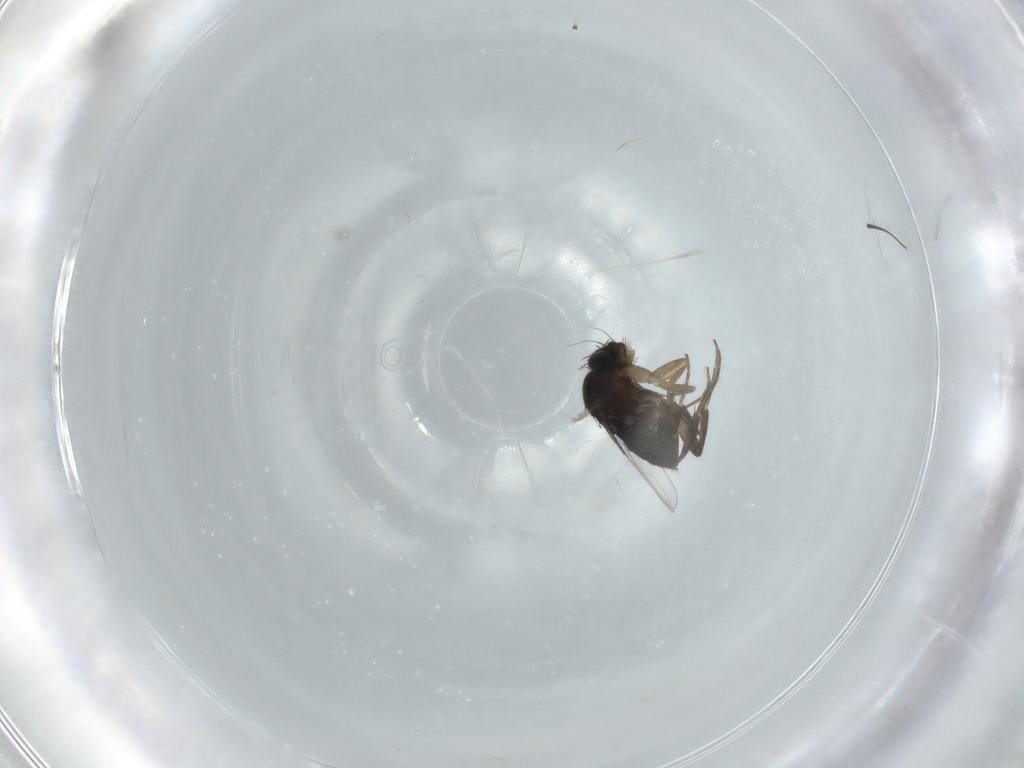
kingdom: Animalia
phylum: Arthropoda
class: Insecta
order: Diptera
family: Phoridae
